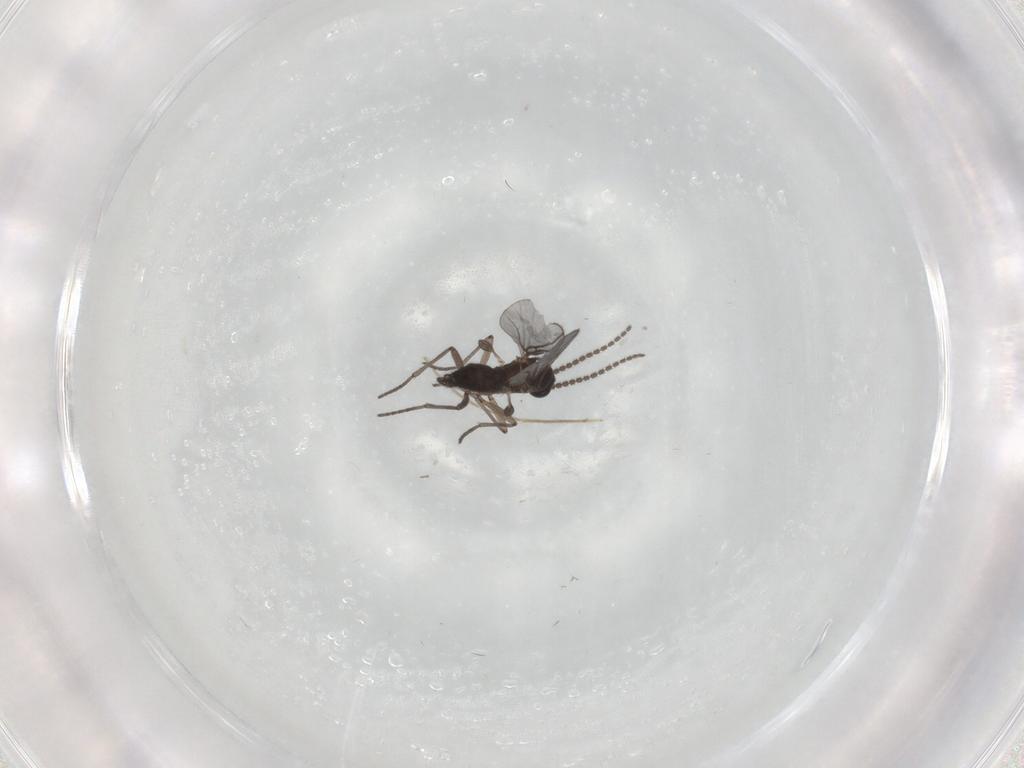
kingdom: Animalia
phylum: Arthropoda
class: Insecta
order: Diptera
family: Sciaridae
